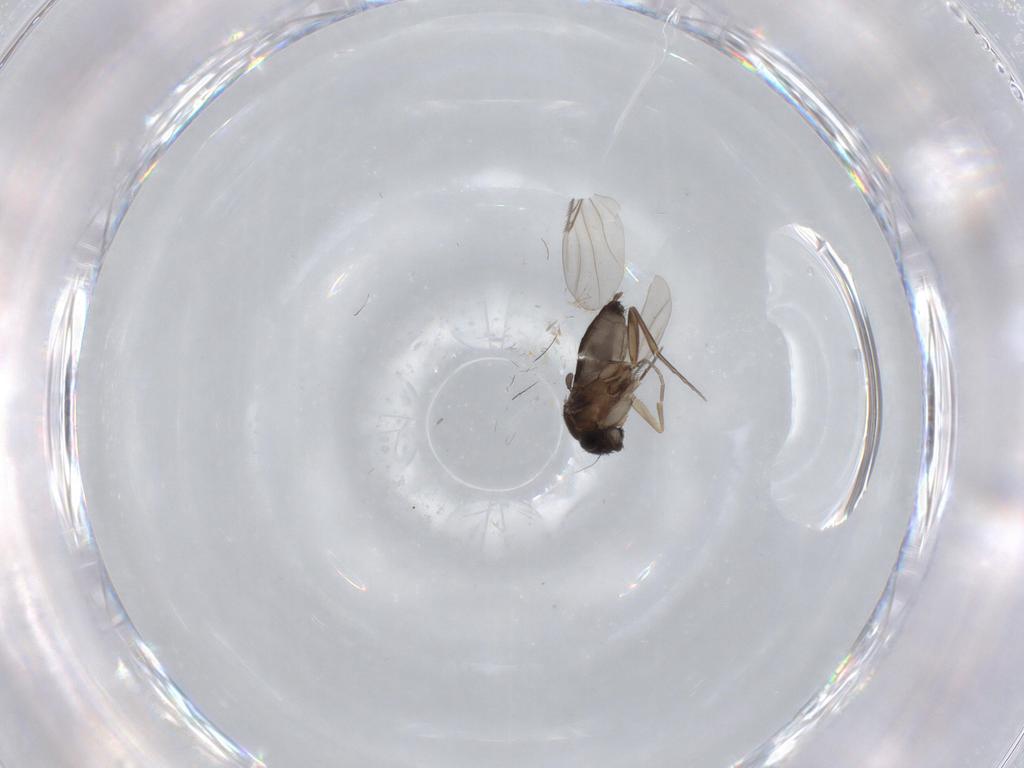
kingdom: Animalia
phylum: Arthropoda
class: Insecta
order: Diptera
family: Phoridae
